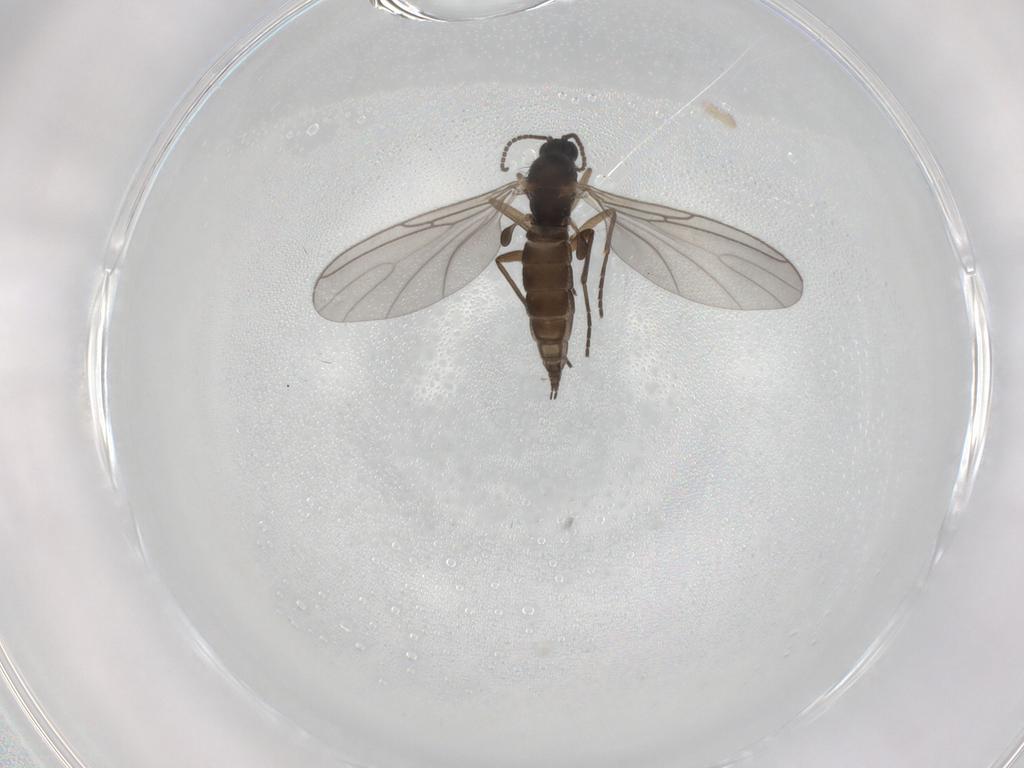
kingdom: Animalia
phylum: Arthropoda
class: Insecta
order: Diptera
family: Sciaridae
